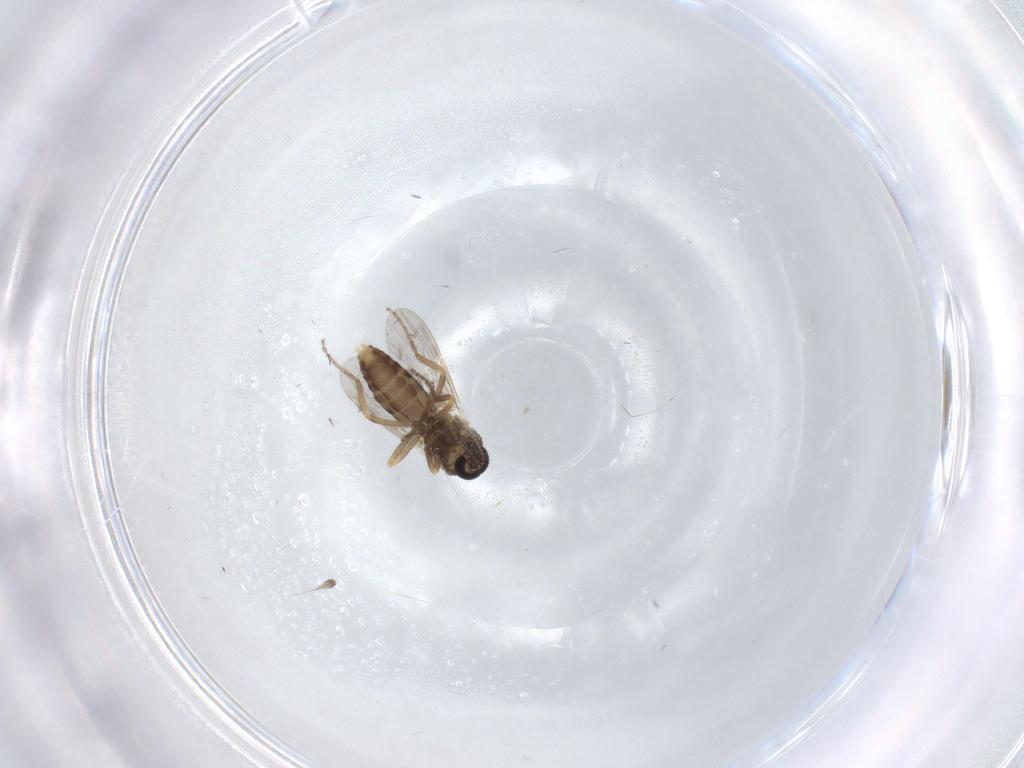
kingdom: Animalia
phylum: Arthropoda
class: Insecta
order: Diptera
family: Ceratopogonidae
